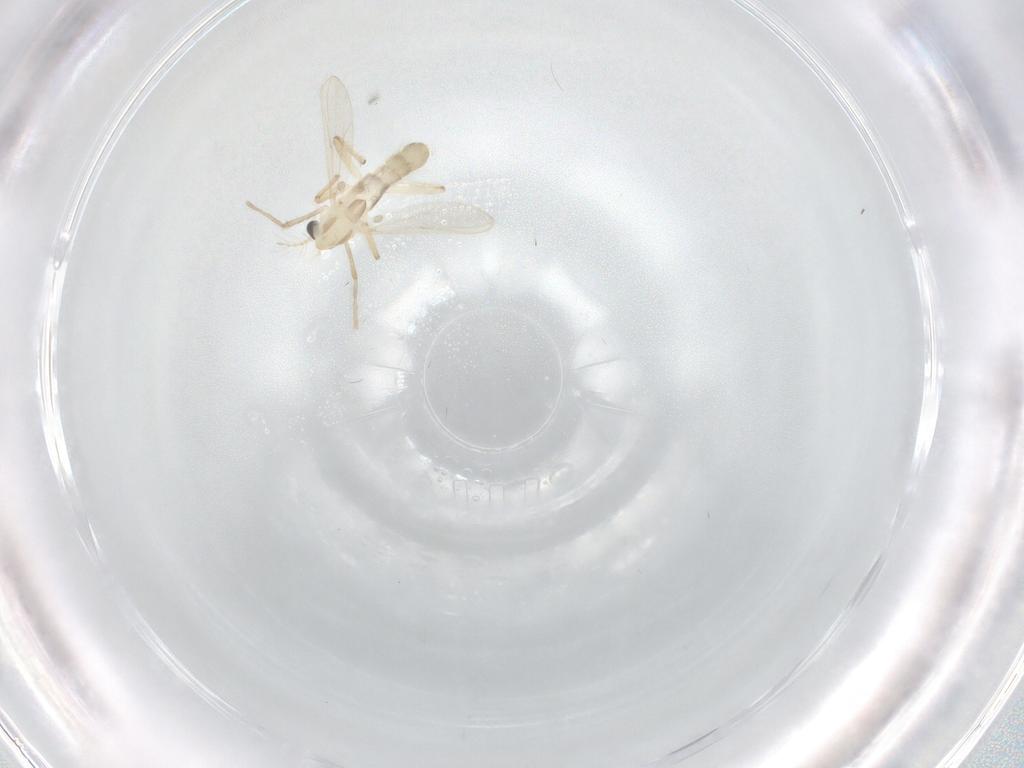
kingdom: Animalia
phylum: Arthropoda
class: Insecta
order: Diptera
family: Chironomidae
